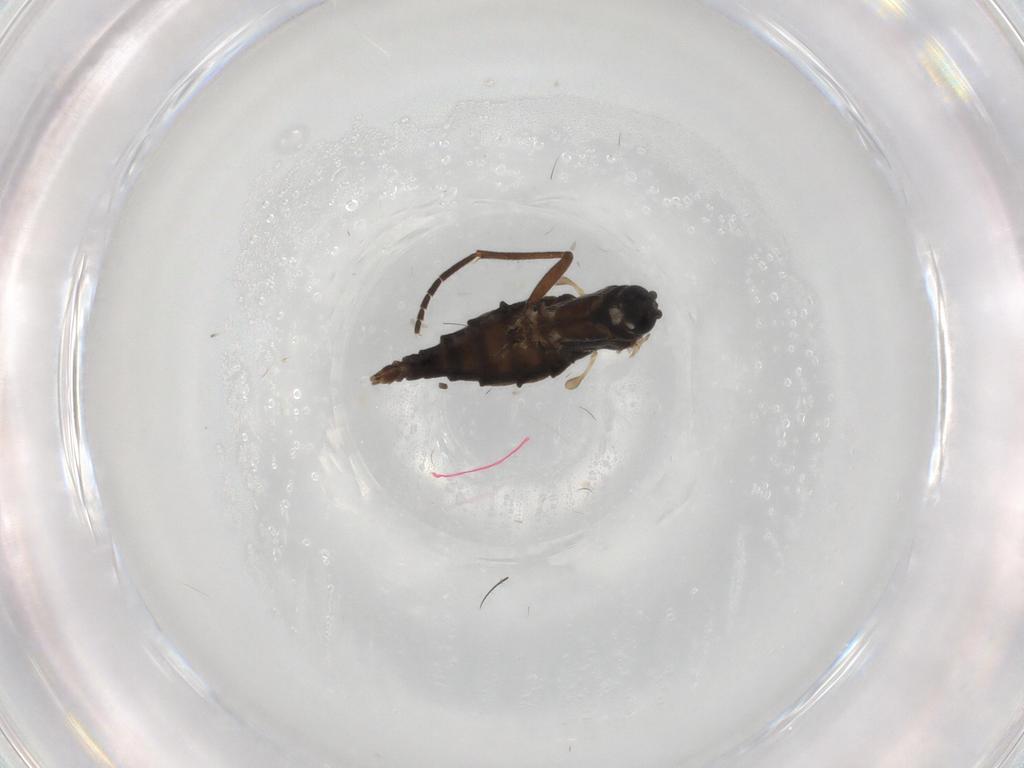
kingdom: Animalia
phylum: Arthropoda
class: Insecta
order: Diptera
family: Sciaridae
